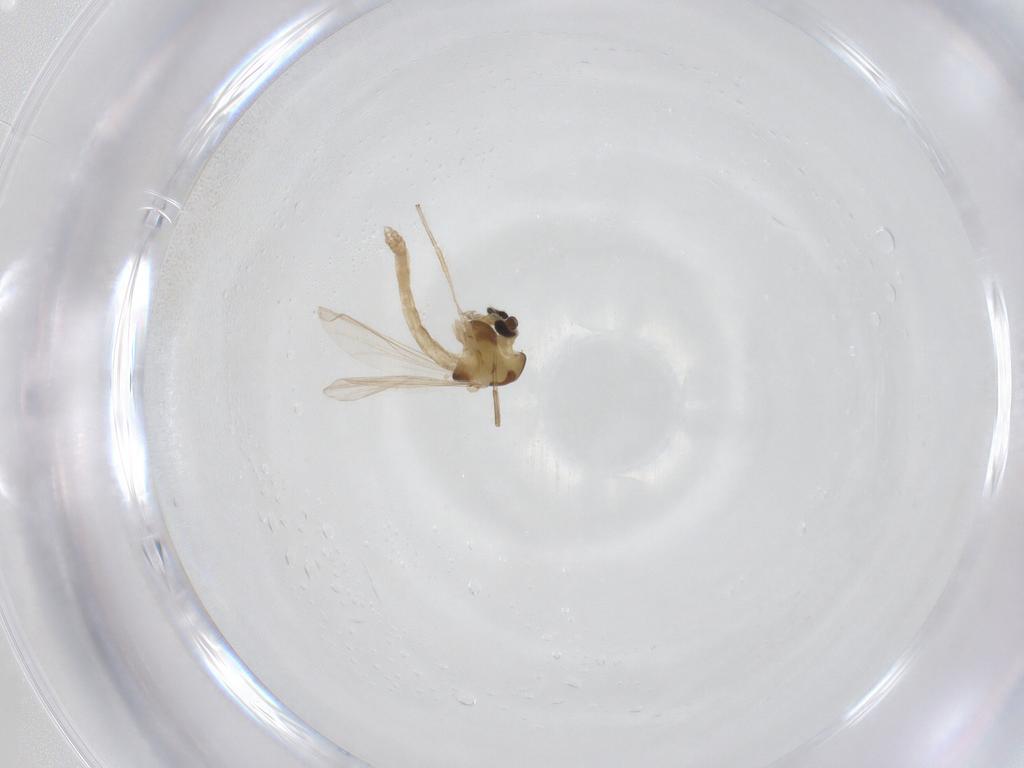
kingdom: Animalia
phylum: Arthropoda
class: Insecta
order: Diptera
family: Chironomidae
